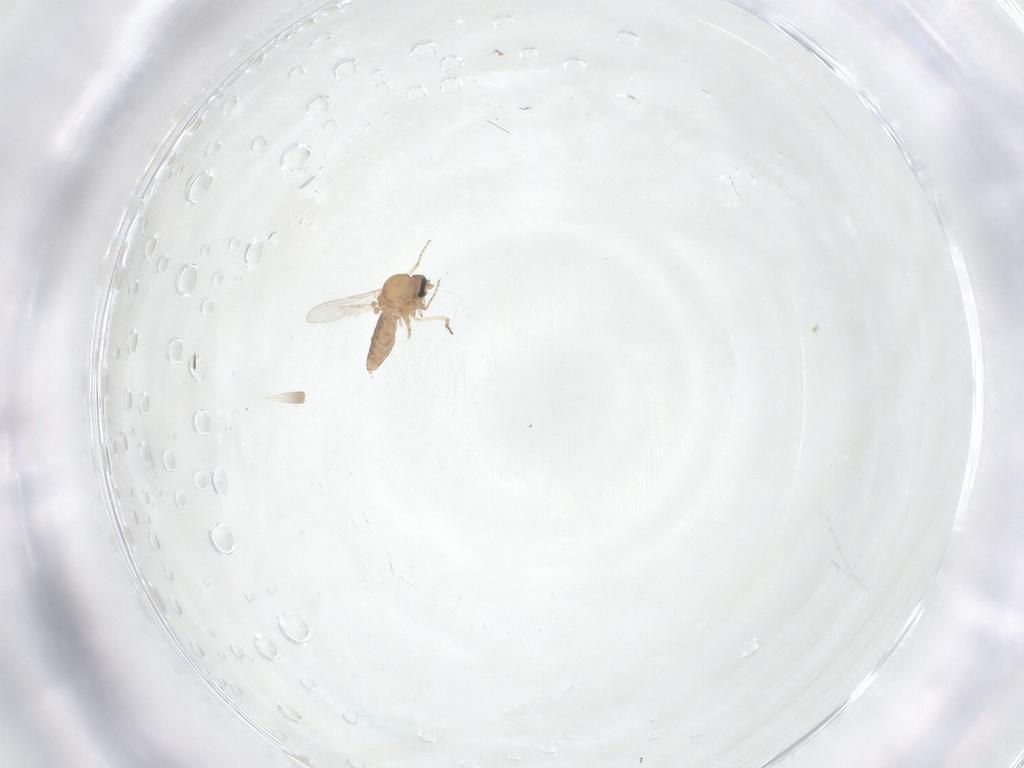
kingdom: Animalia
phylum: Arthropoda
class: Insecta
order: Diptera
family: Ceratopogonidae
